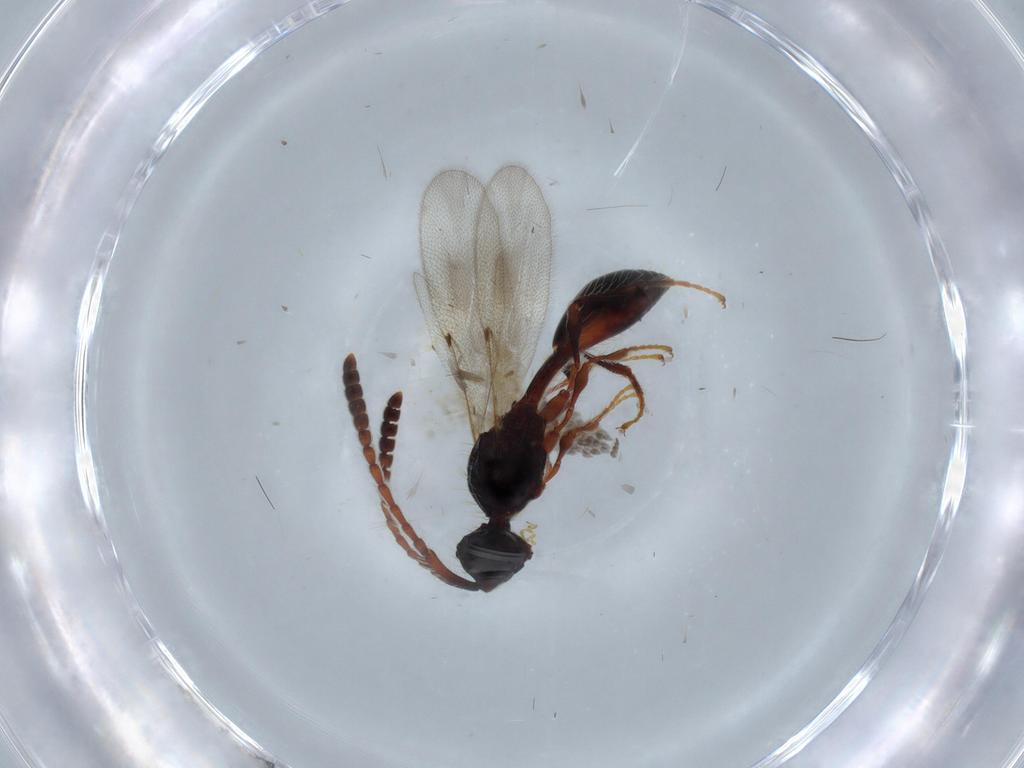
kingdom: Animalia
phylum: Arthropoda
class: Insecta
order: Hymenoptera
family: Diapriidae
